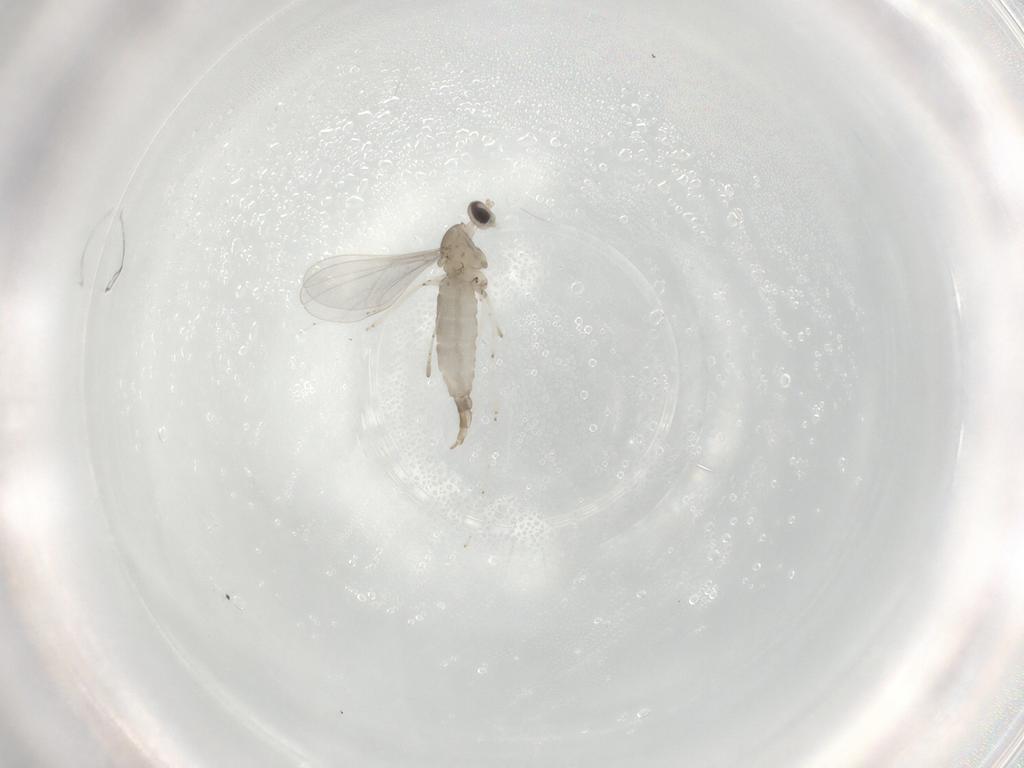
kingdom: Animalia
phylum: Arthropoda
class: Insecta
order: Diptera
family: Cecidomyiidae
